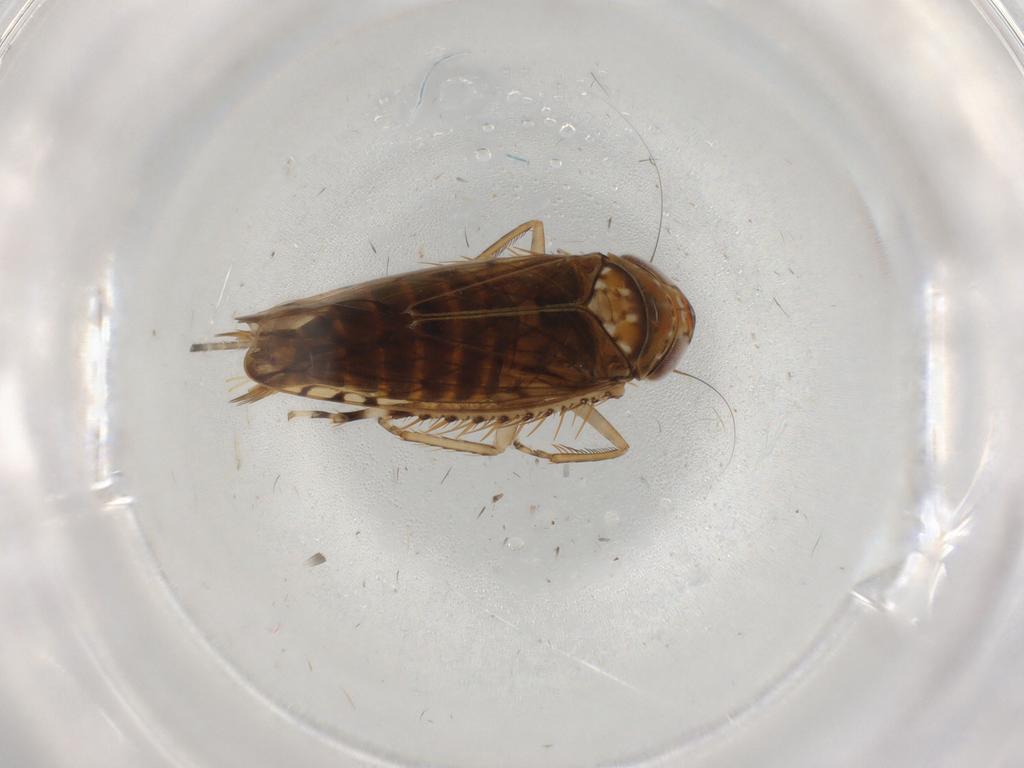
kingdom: Animalia
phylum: Arthropoda
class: Insecta
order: Hemiptera
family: Cicadellidae
